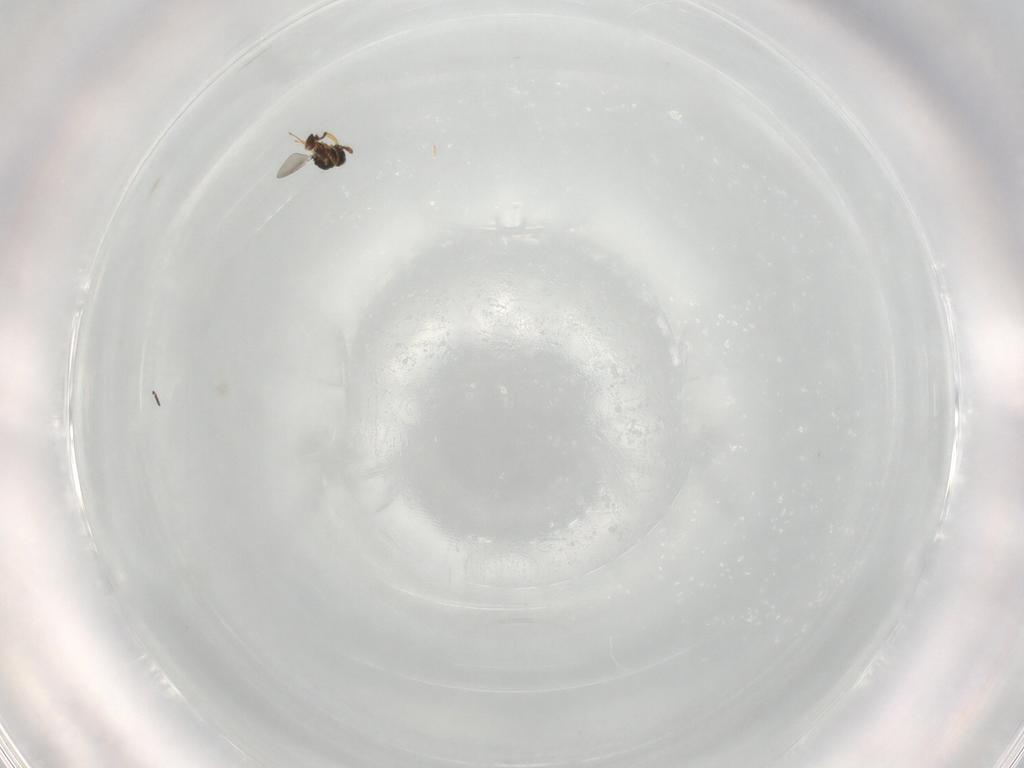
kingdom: Animalia
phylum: Arthropoda
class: Insecta
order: Hymenoptera
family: Platygastridae
